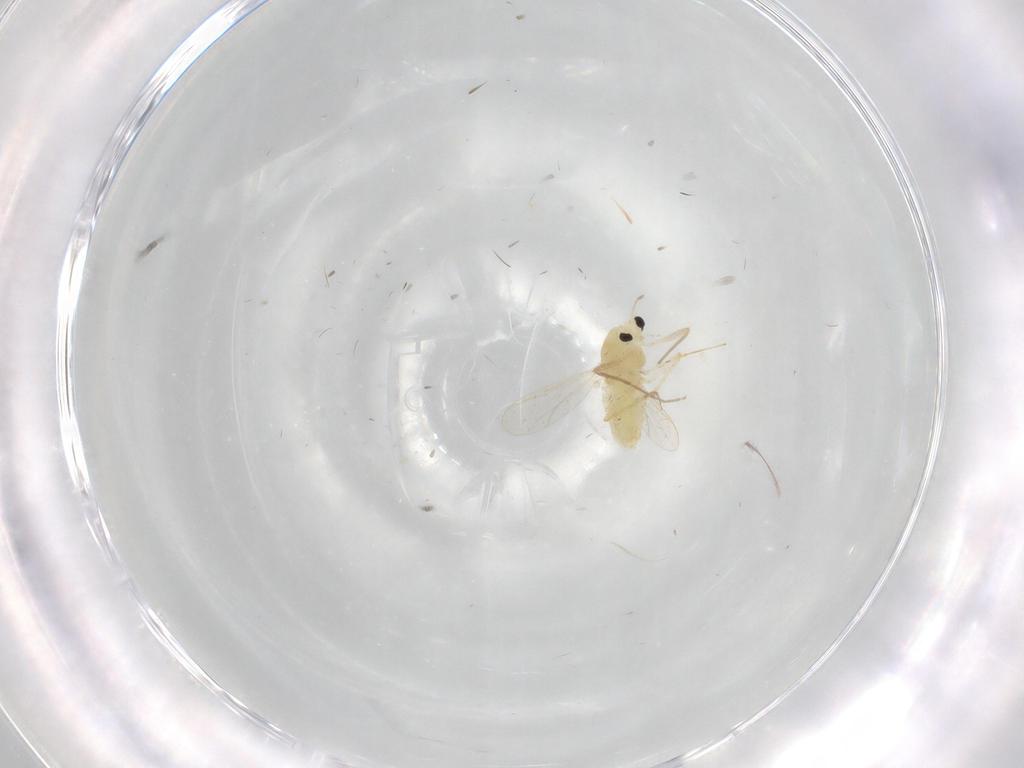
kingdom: Animalia
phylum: Arthropoda
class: Insecta
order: Diptera
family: Chironomidae
